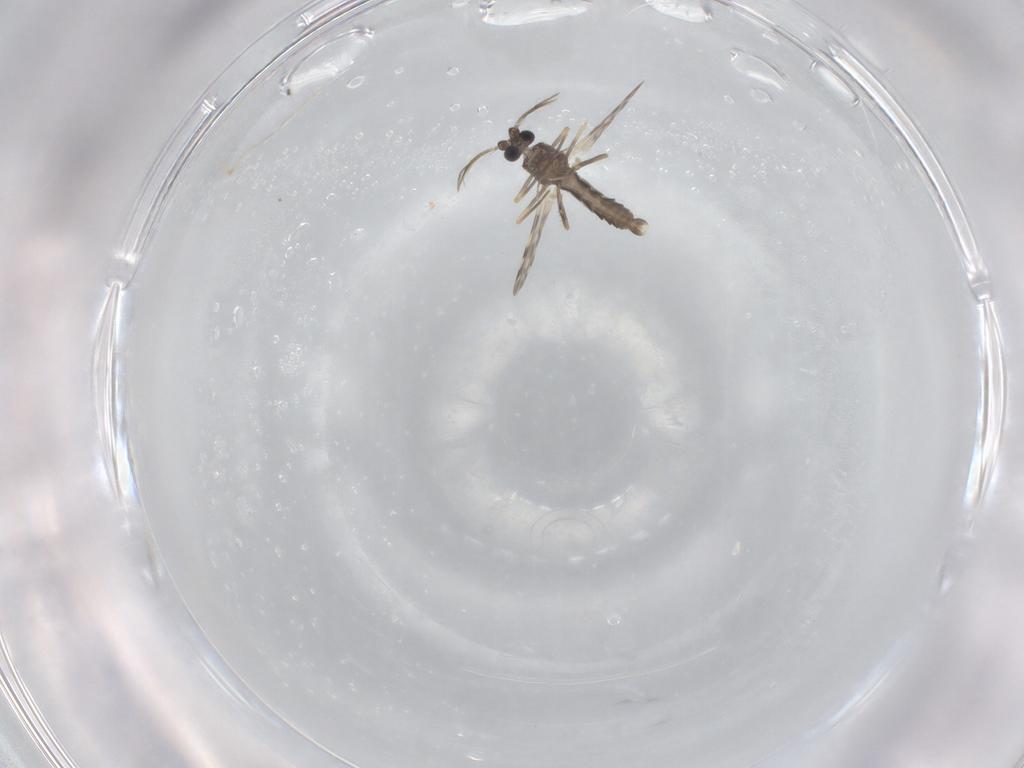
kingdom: Animalia
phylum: Arthropoda
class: Insecta
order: Diptera
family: Ceratopogonidae
